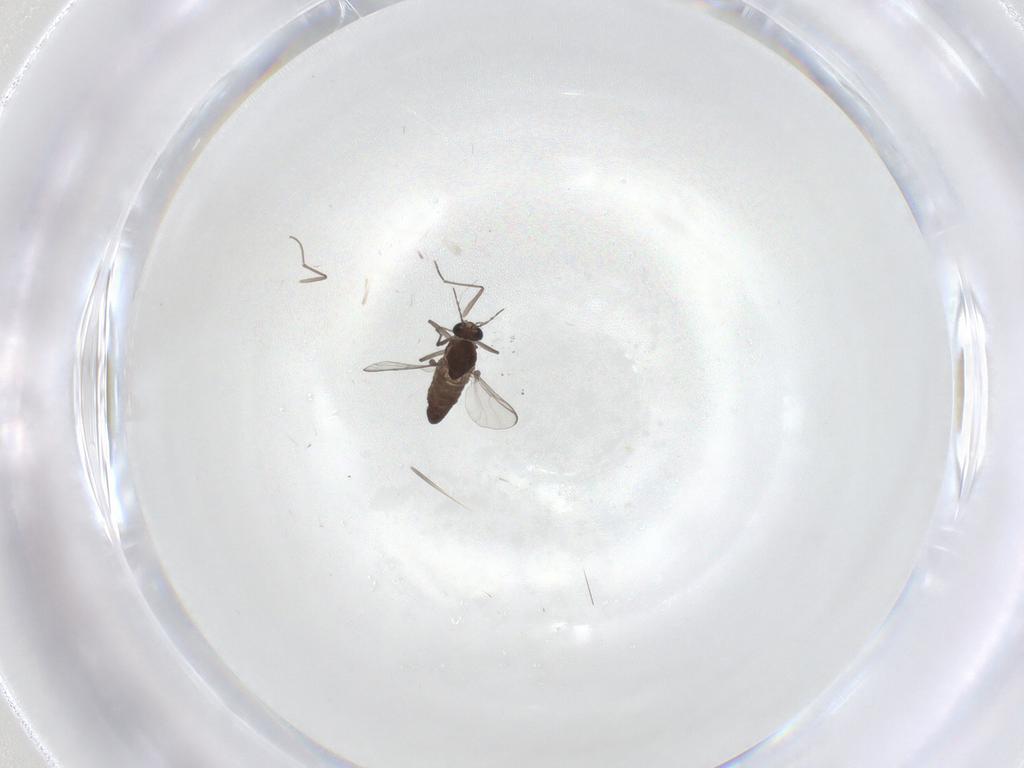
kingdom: Animalia
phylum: Arthropoda
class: Insecta
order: Diptera
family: Chironomidae
